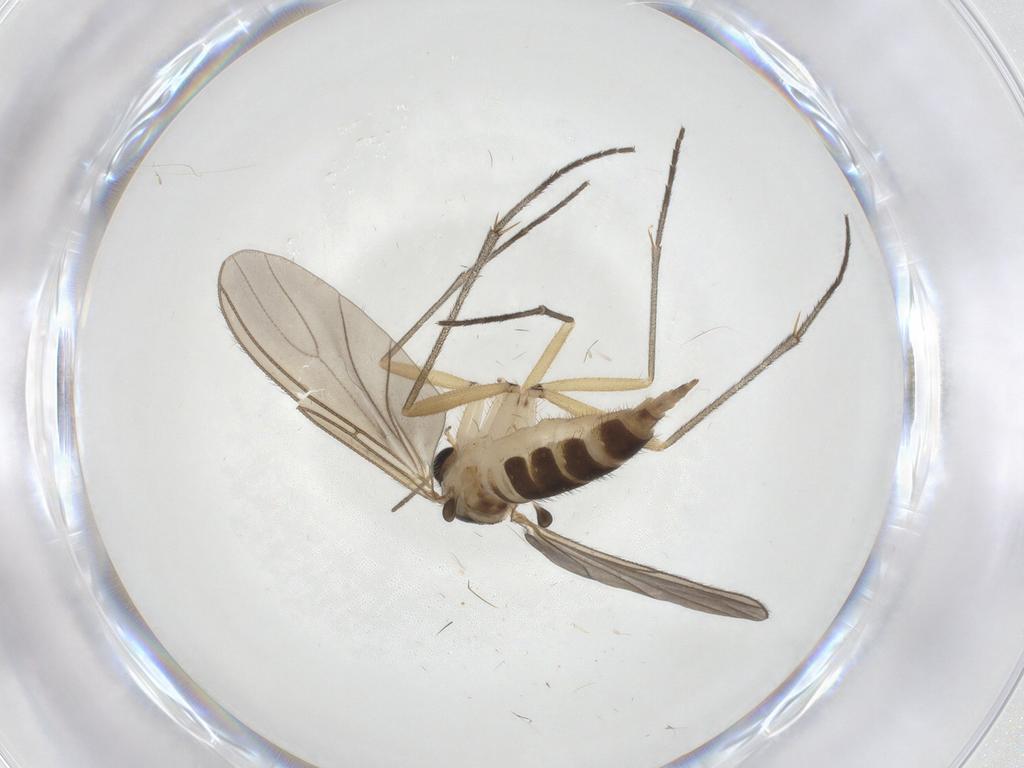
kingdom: Animalia
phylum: Arthropoda
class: Insecta
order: Diptera
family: Sciaridae
